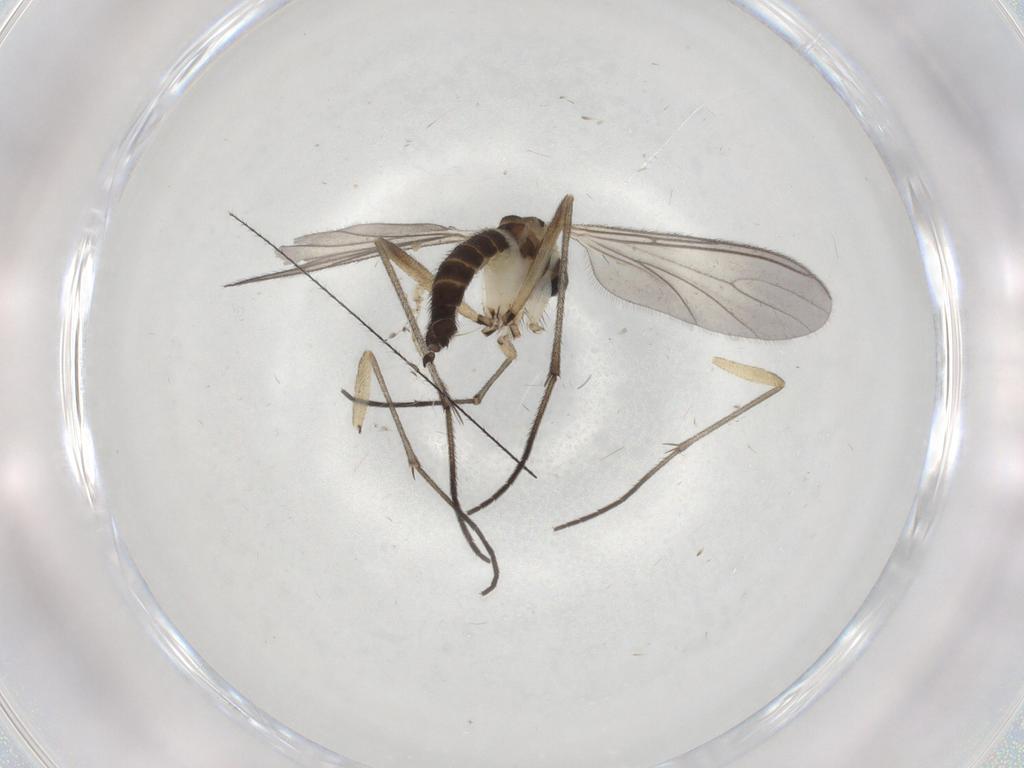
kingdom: Animalia
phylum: Arthropoda
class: Insecta
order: Diptera
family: Sciaridae
